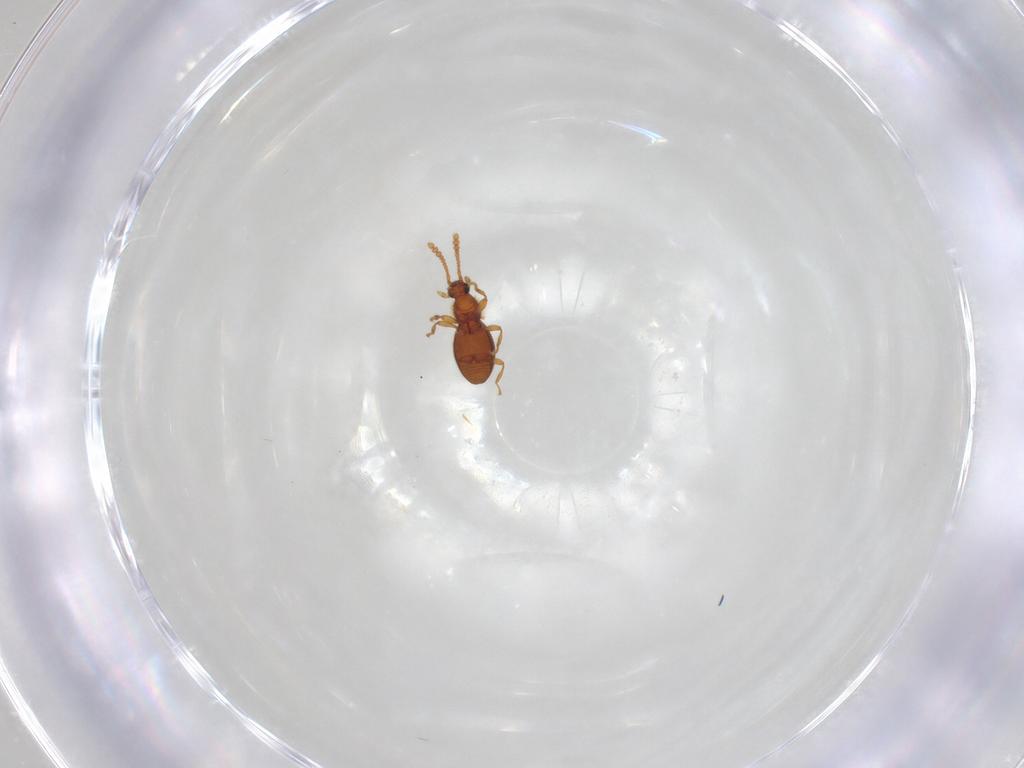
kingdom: Animalia
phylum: Arthropoda
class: Insecta
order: Coleoptera
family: Staphylinidae
